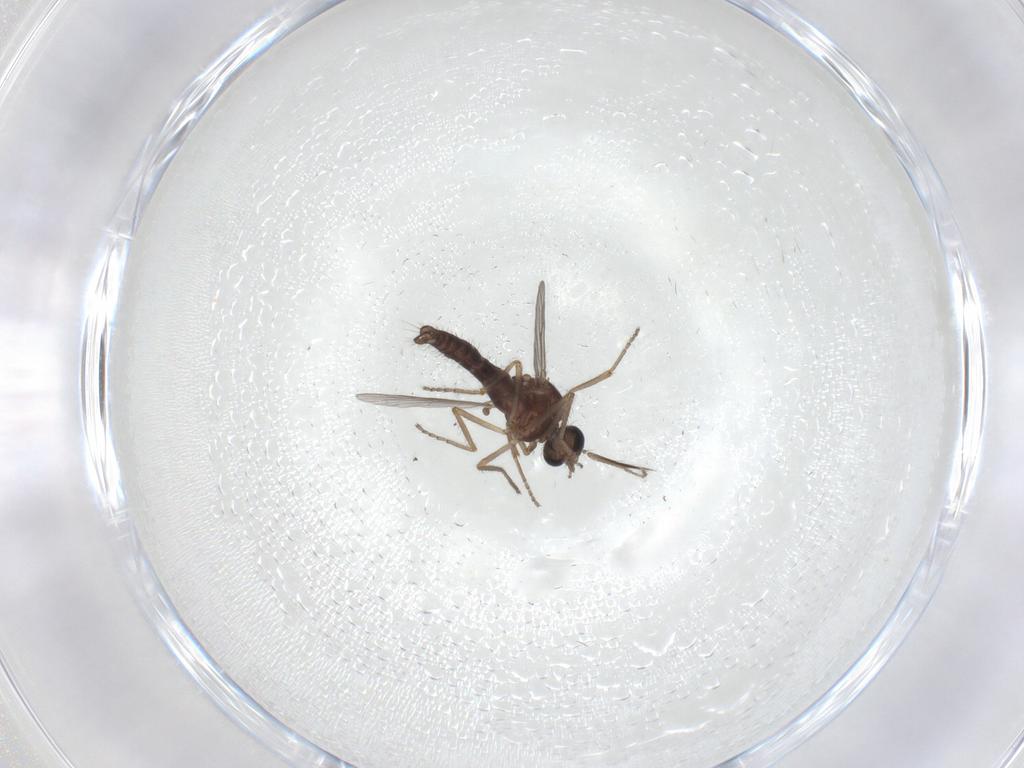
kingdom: Animalia
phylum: Arthropoda
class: Insecta
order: Diptera
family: Ceratopogonidae
